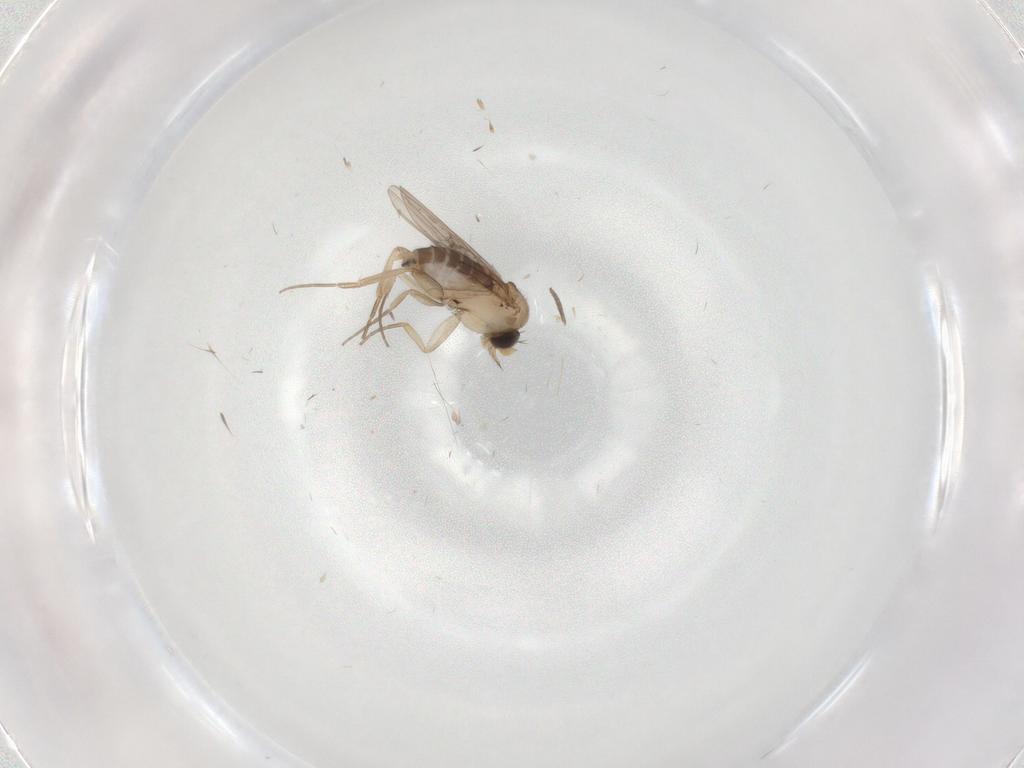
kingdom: Animalia
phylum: Arthropoda
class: Insecta
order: Diptera
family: Phoridae
